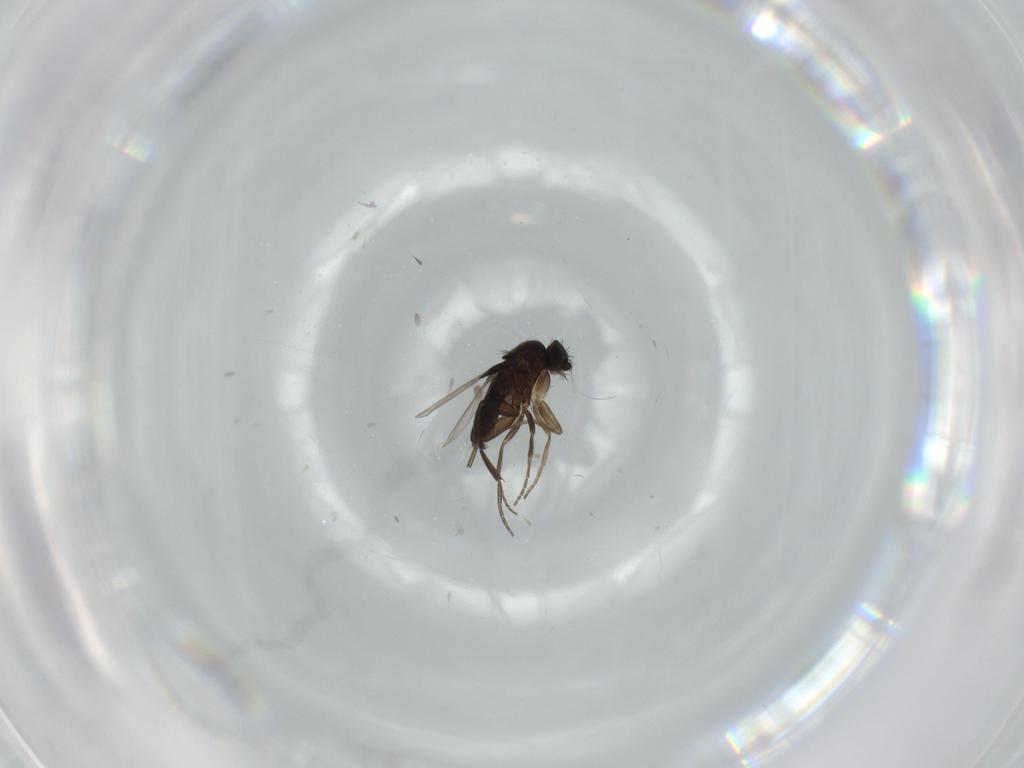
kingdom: Animalia
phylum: Arthropoda
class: Insecta
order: Diptera
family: Phoridae
